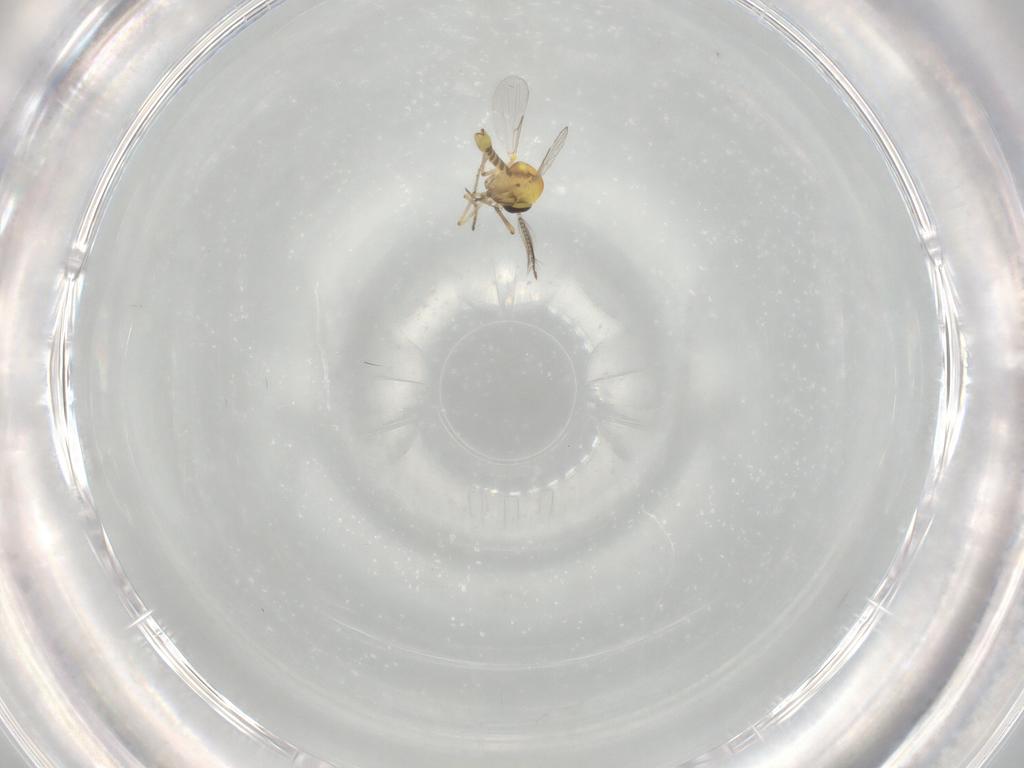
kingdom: Animalia
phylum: Arthropoda
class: Insecta
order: Diptera
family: Ceratopogonidae
